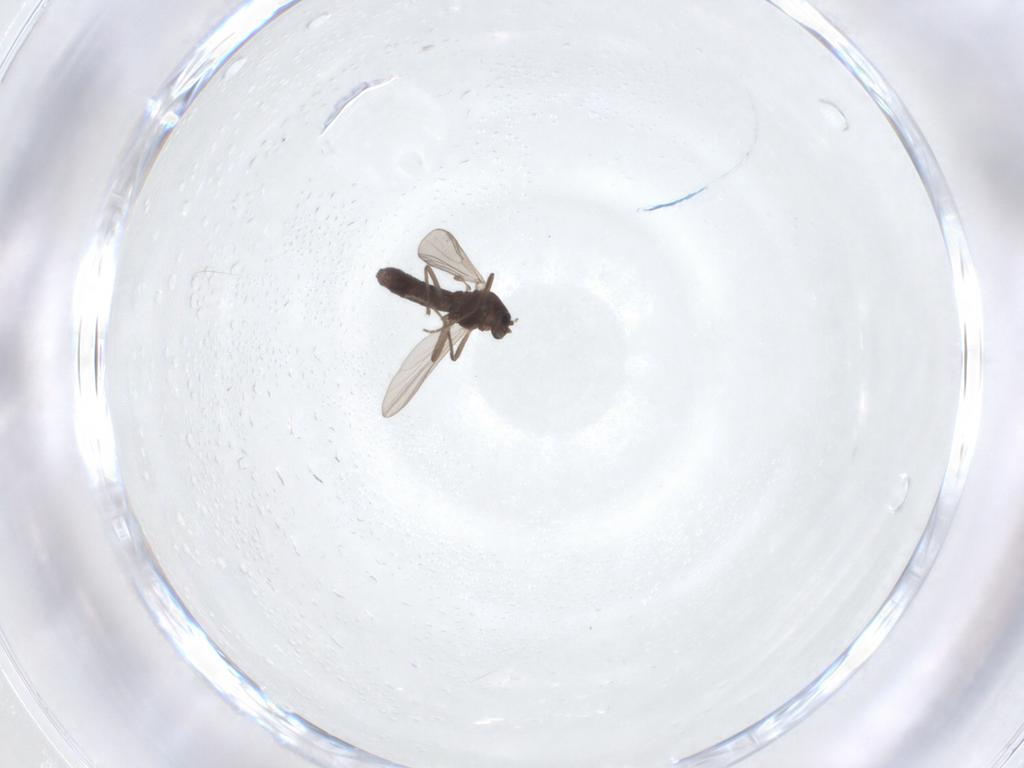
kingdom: Animalia
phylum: Arthropoda
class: Insecta
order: Diptera
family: Chironomidae
